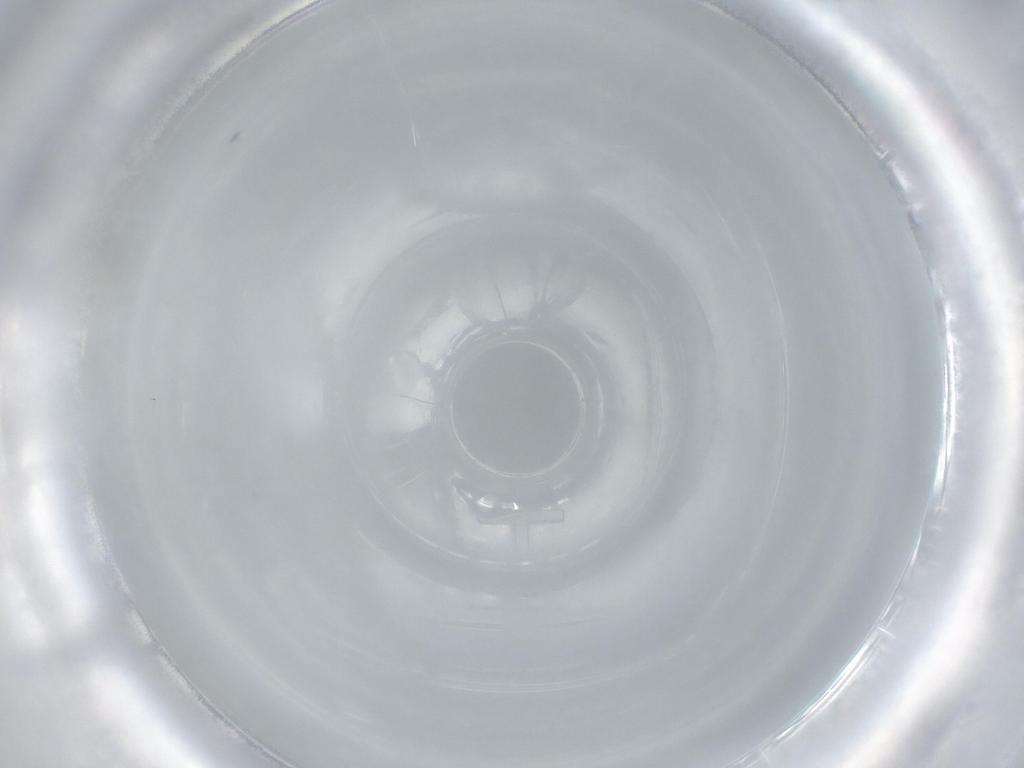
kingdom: Animalia
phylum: Arthropoda
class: Insecta
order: Diptera
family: Xylomyidae
